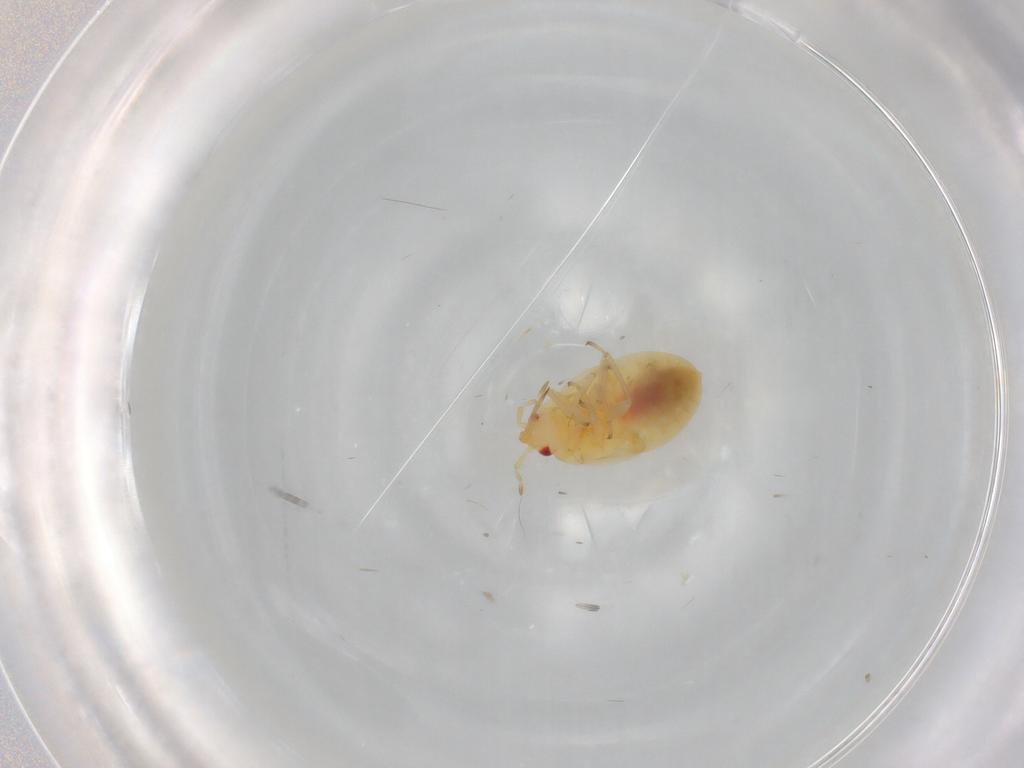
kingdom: Animalia
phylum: Arthropoda
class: Insecta
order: Hemiptera
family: Anthocoridae
